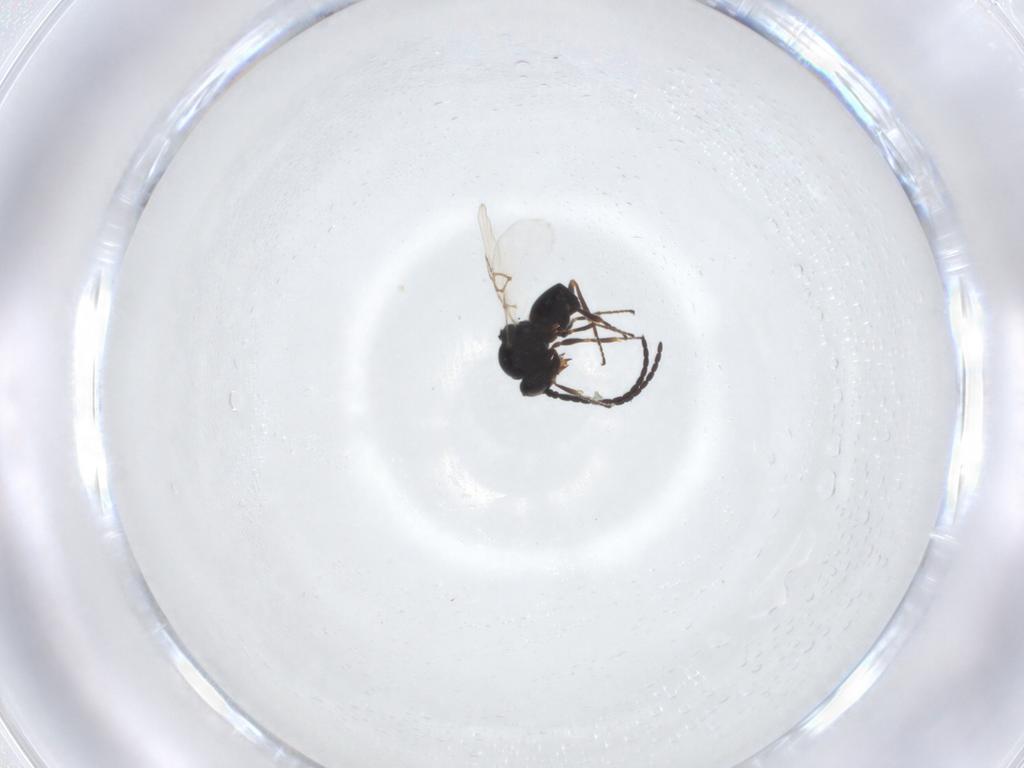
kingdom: Animalia
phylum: Arthropoda
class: Insecta
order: Hymenoptera
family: Figitidae
